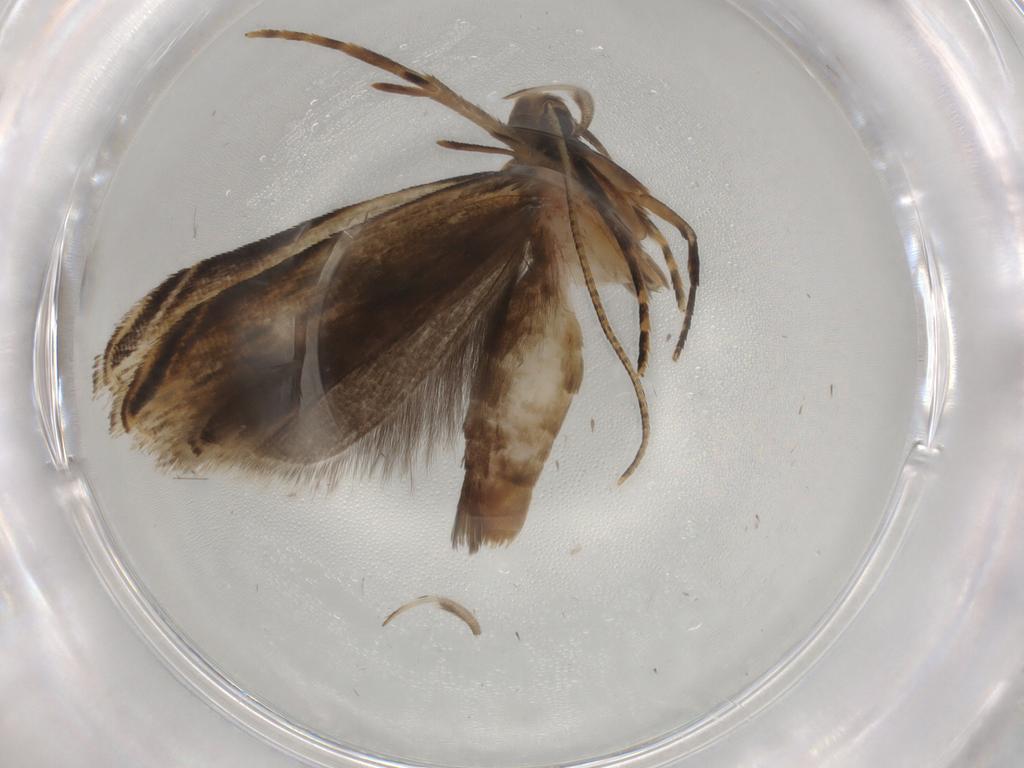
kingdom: Animalia
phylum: Arthropoda
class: Insecta
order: Lepidoptera
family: Gelechiidae
